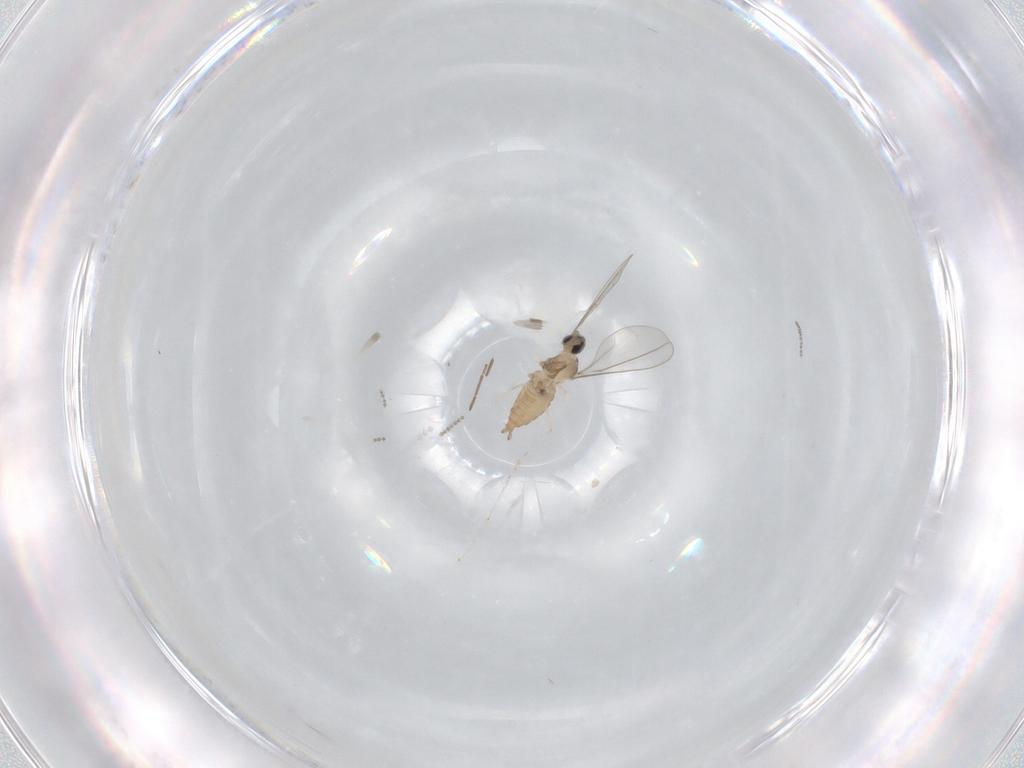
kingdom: Animalia
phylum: Arthropoda
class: Insecta
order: Diptera
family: Cecidomyiidae
